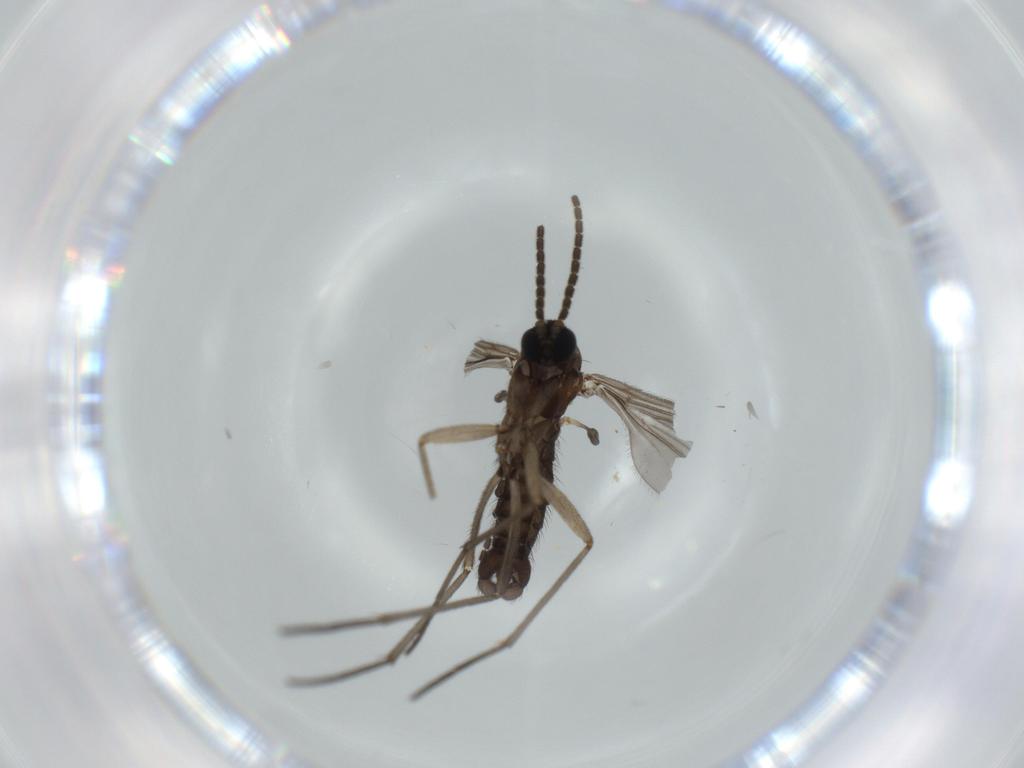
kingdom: Animalia
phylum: Arthropoda
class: Insecta
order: Diptera
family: Sciaridae
